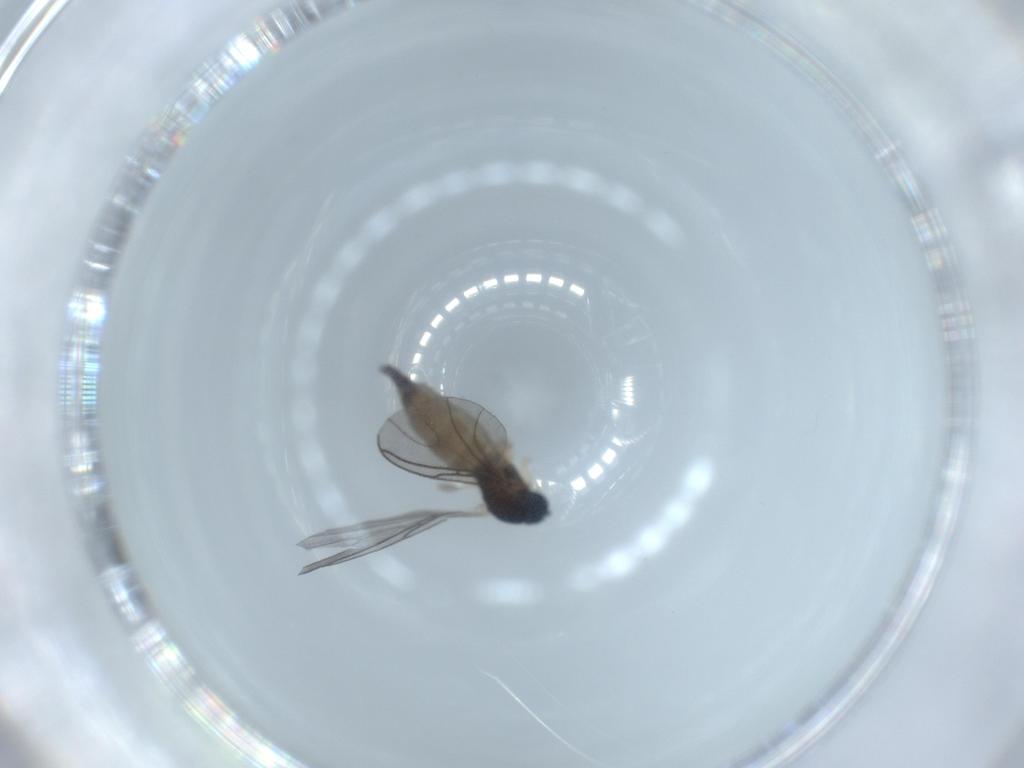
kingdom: Animalia
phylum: Arthropoda
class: Insecta
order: Diptera
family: Sciaridae
